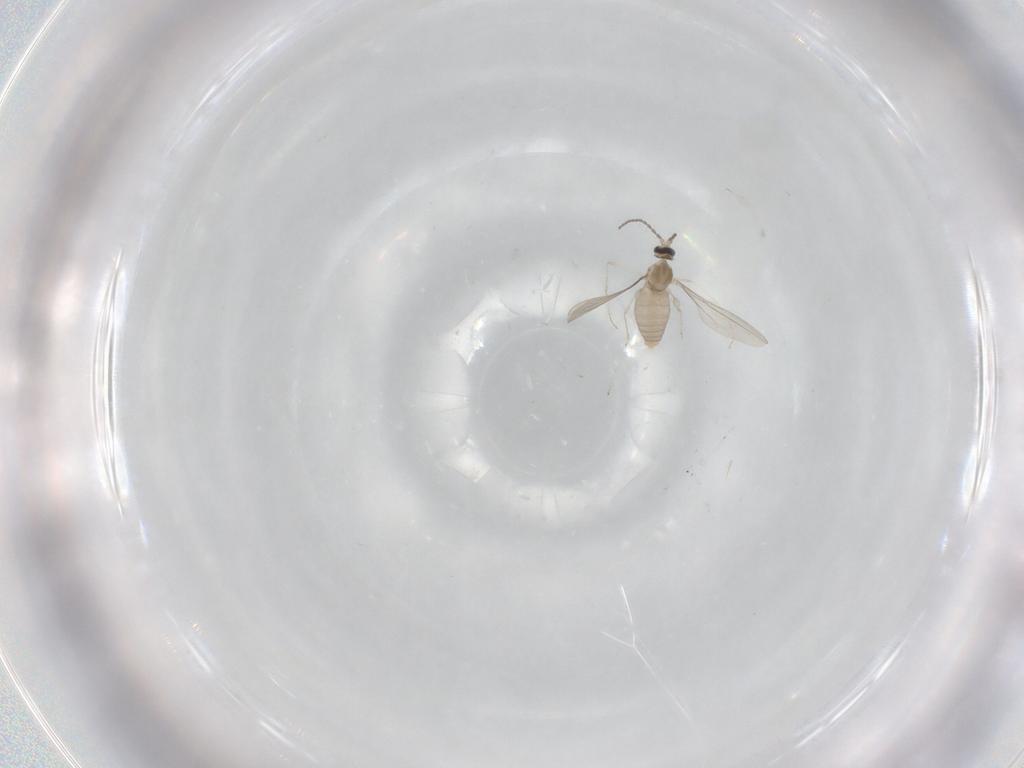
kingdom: Animalia
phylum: Arthropoda
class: Insecta
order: Diptera
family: Cecidomyiidae
